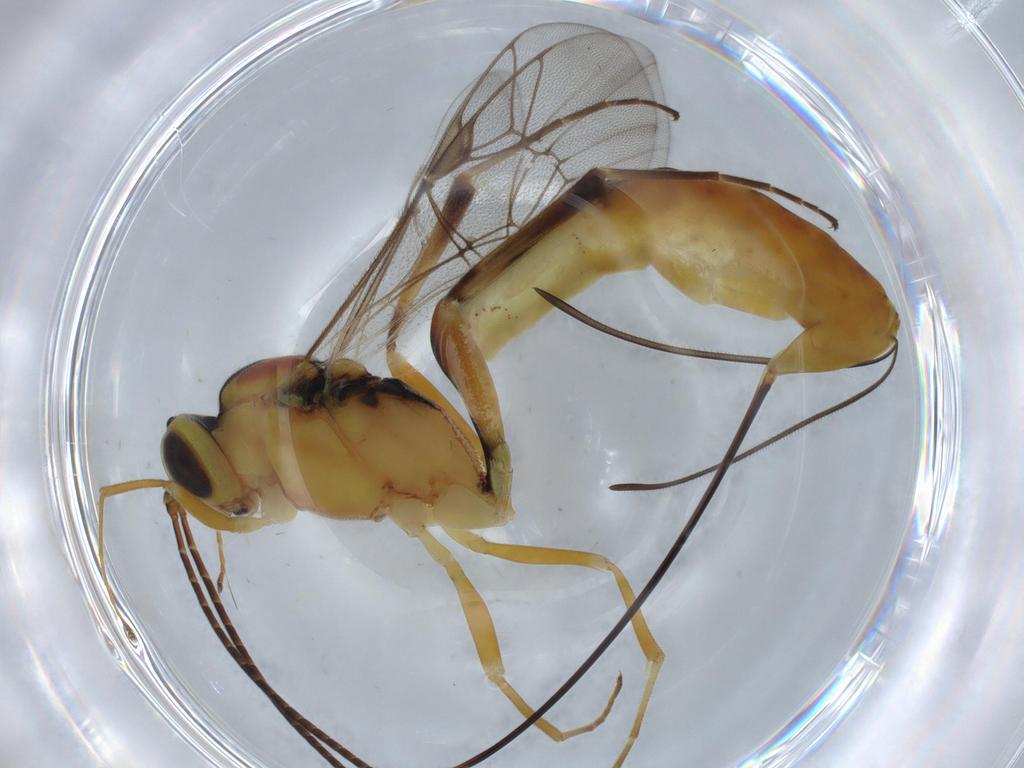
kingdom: Animalia
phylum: Arthropoda
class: Insecta
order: Hymenoptera
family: Ichneumonidae
